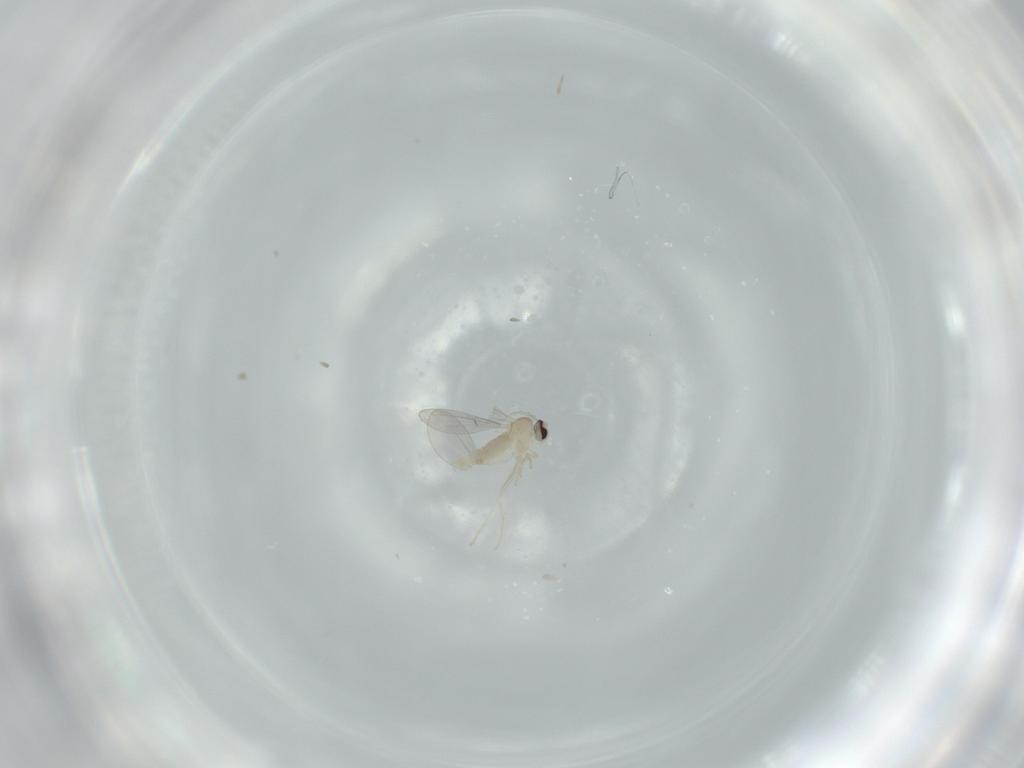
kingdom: Animalia
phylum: Arthropoda
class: Insecta
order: Diptera
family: Cecidomyiidae
